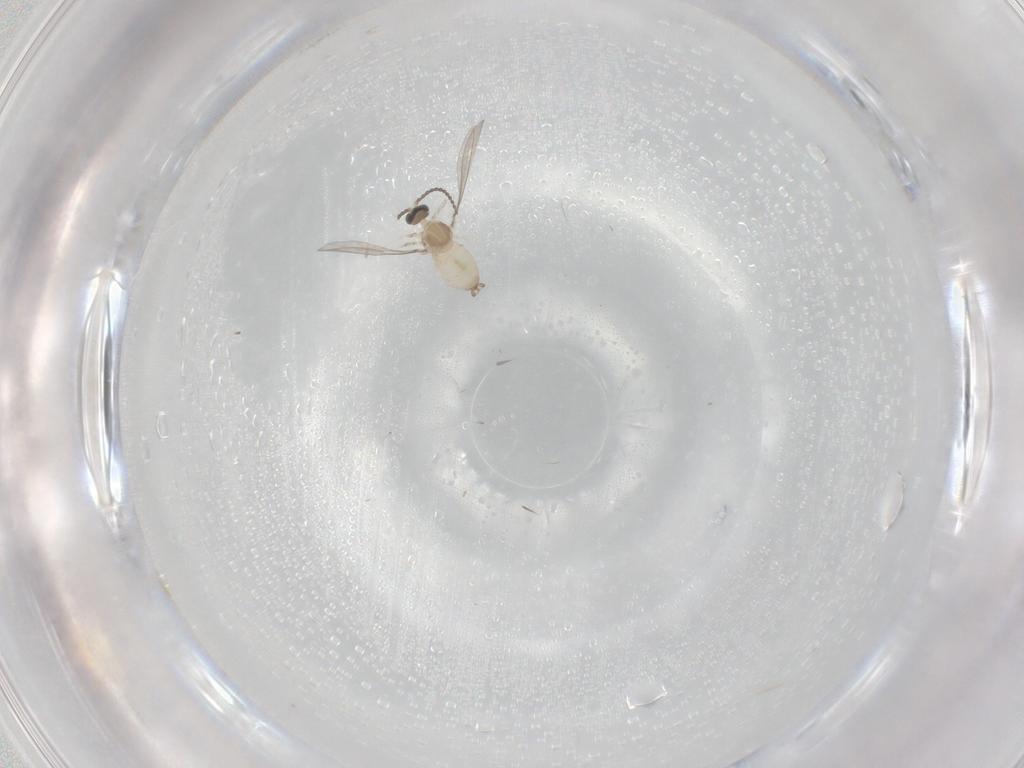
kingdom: Animalia
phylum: Arthropoda
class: Insecta
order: Diptera
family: Cecidomyiidae
